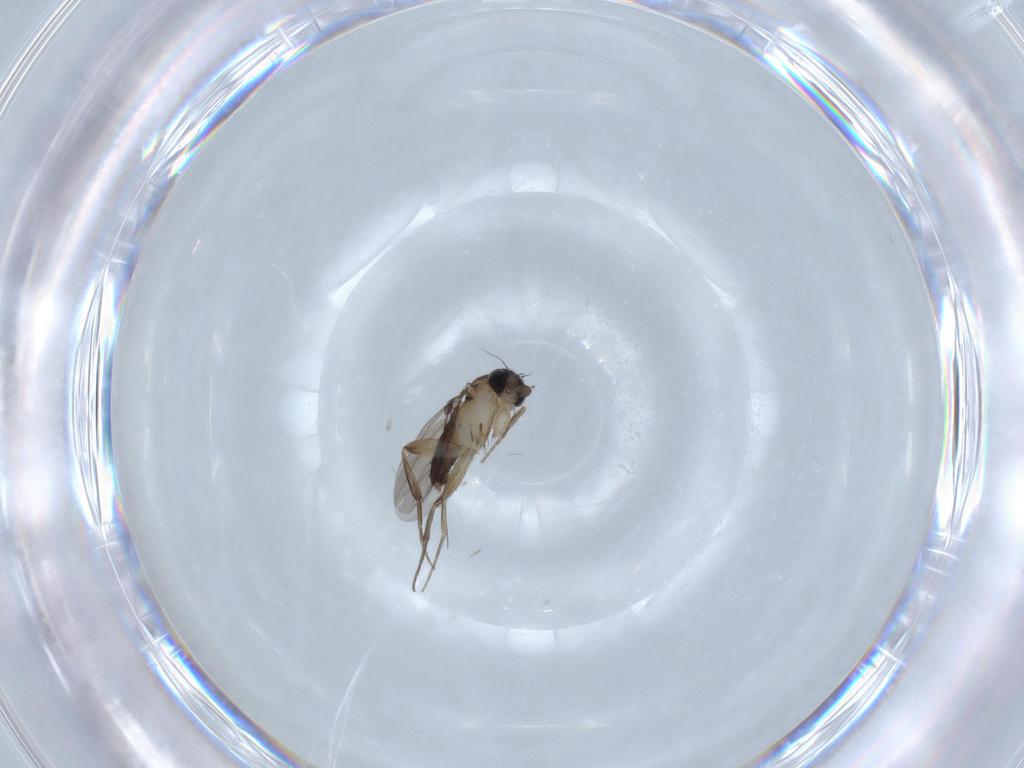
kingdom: Animalia
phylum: Arthropoda
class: Insecta
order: Diptera
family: Phoridae
